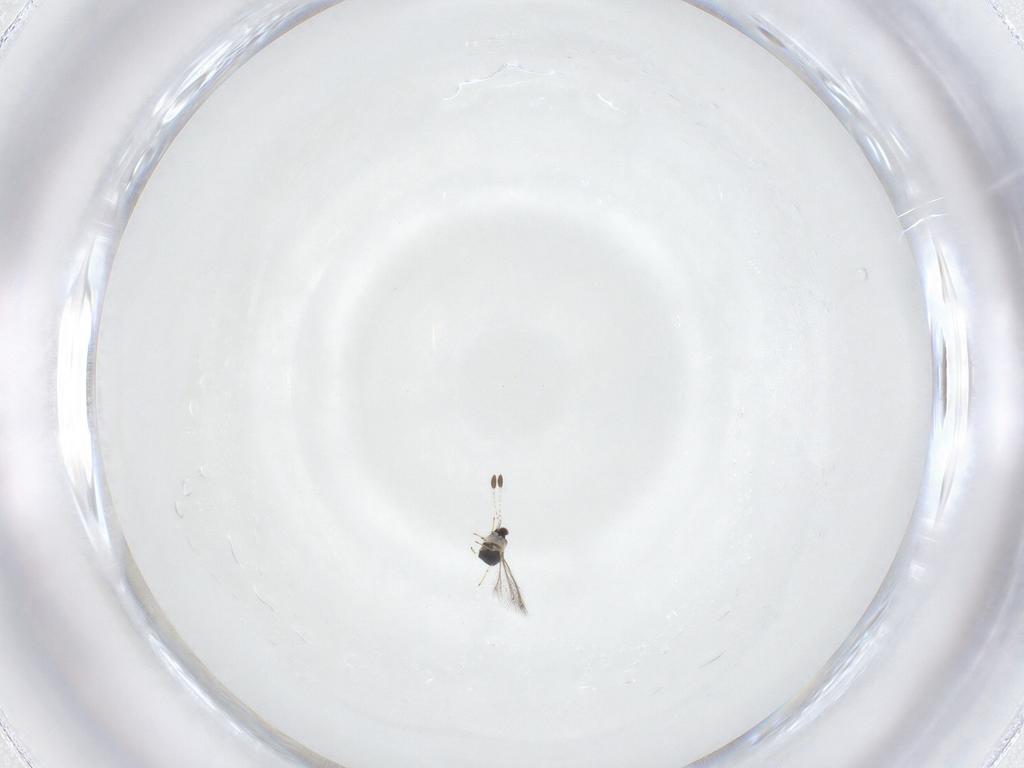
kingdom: Animalia
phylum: Arthropoda
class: Insecta
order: Hymenoptera
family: Mymaridae
